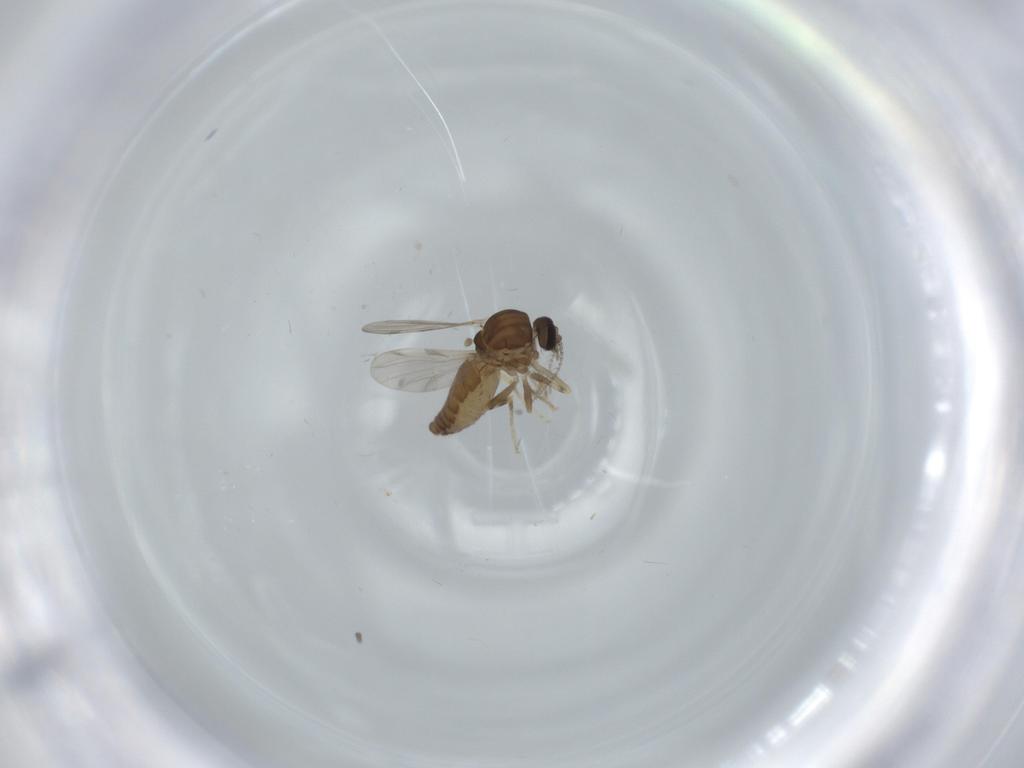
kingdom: Animalia
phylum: Arthropoda
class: Insecta
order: Diptera
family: Ceratopogonidae
